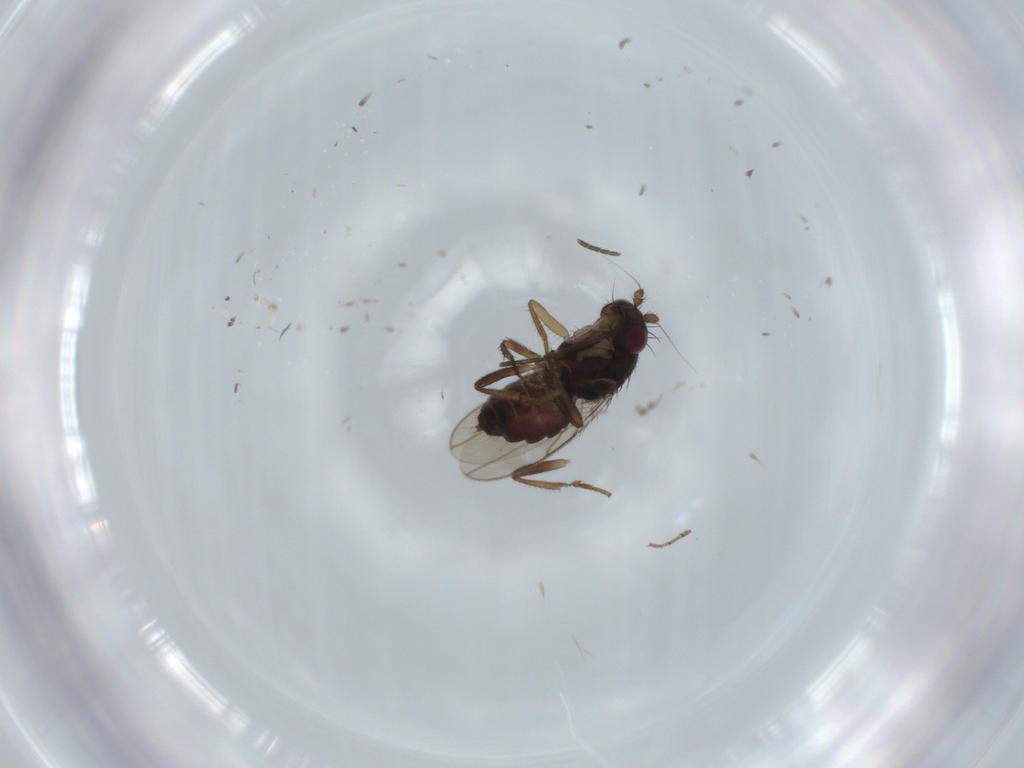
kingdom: Animalia
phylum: Arthropoda
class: Insecta
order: Diptera
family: Sphaeroceridae
